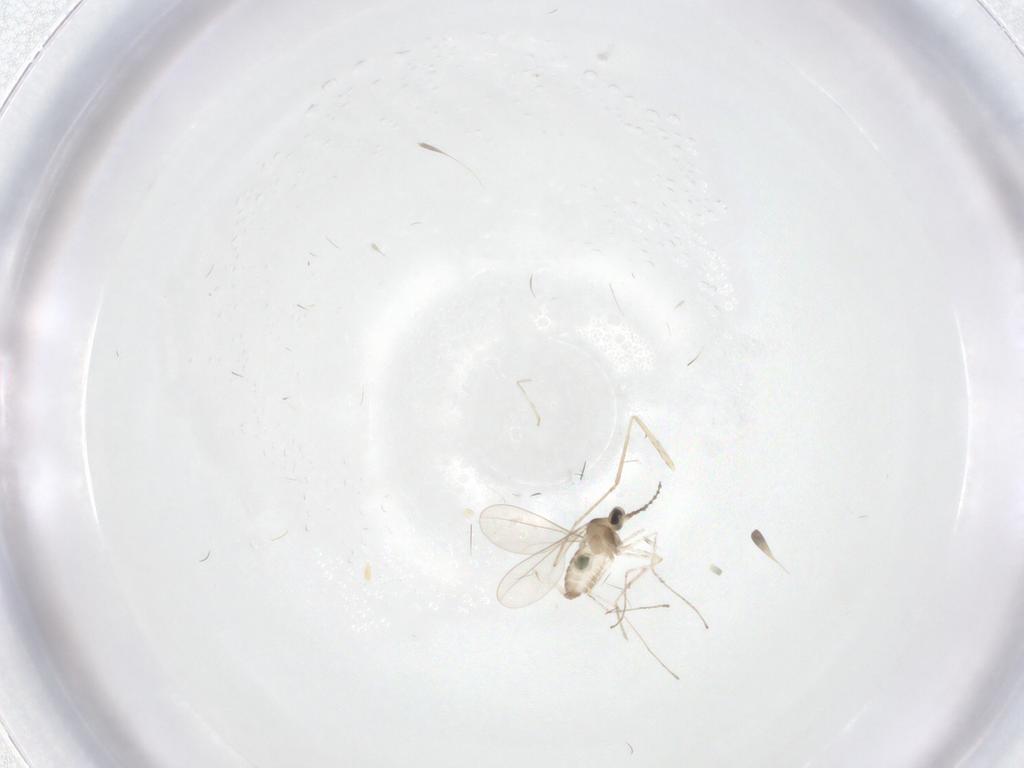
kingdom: Animalia
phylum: Arthropoda
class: Insecta
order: Diptera
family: Cecidomyiidae
